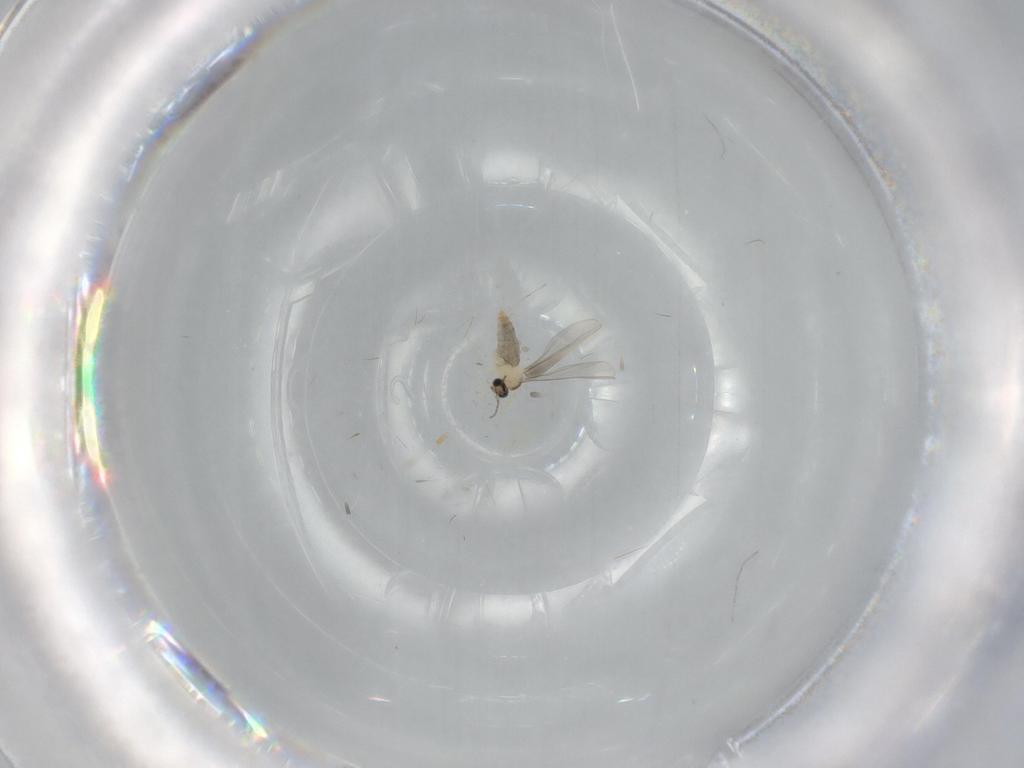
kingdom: Animalia
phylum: Arthropoda
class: Insecta
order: Diptera
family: Tabanidae
